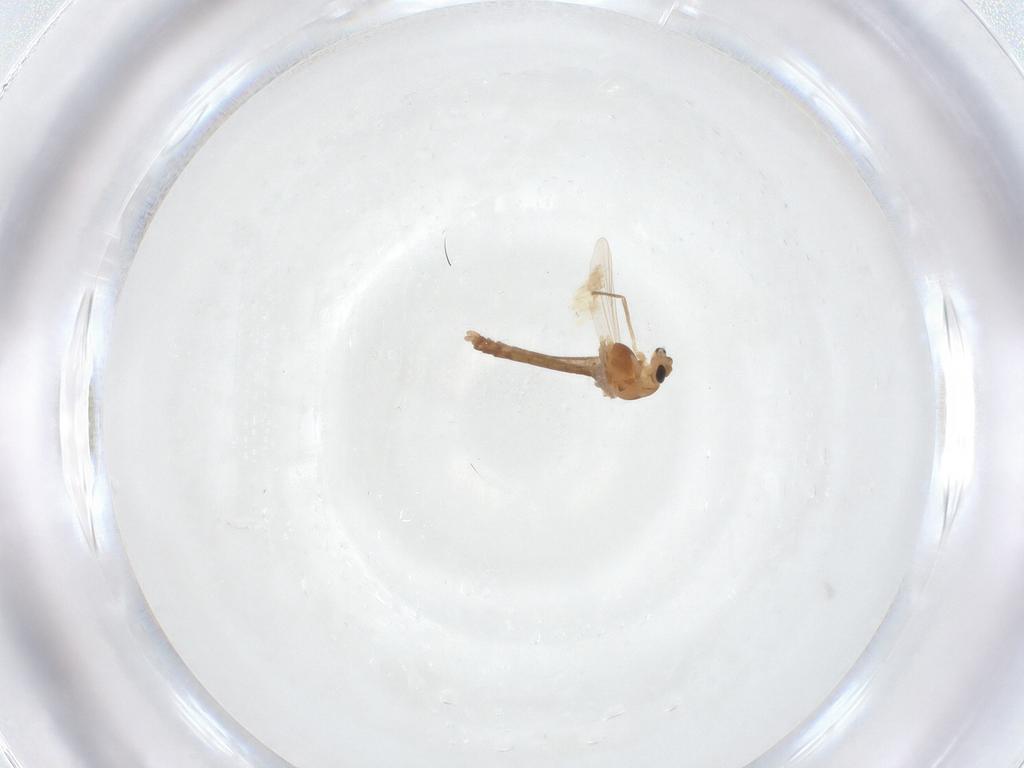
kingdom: Animalia
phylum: Arthropoda
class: Insecta
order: Diptera
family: Chironomidae
